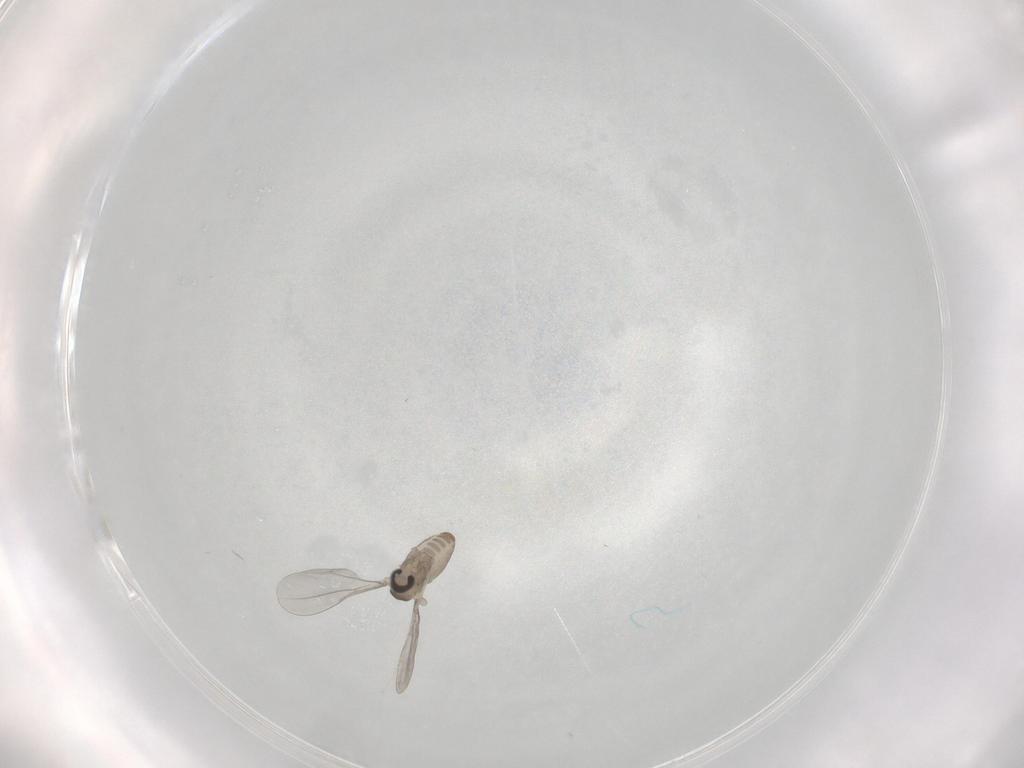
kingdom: Animalia
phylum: Arthropoda
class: Insecta
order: Diptera
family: Cecidomyiidae
